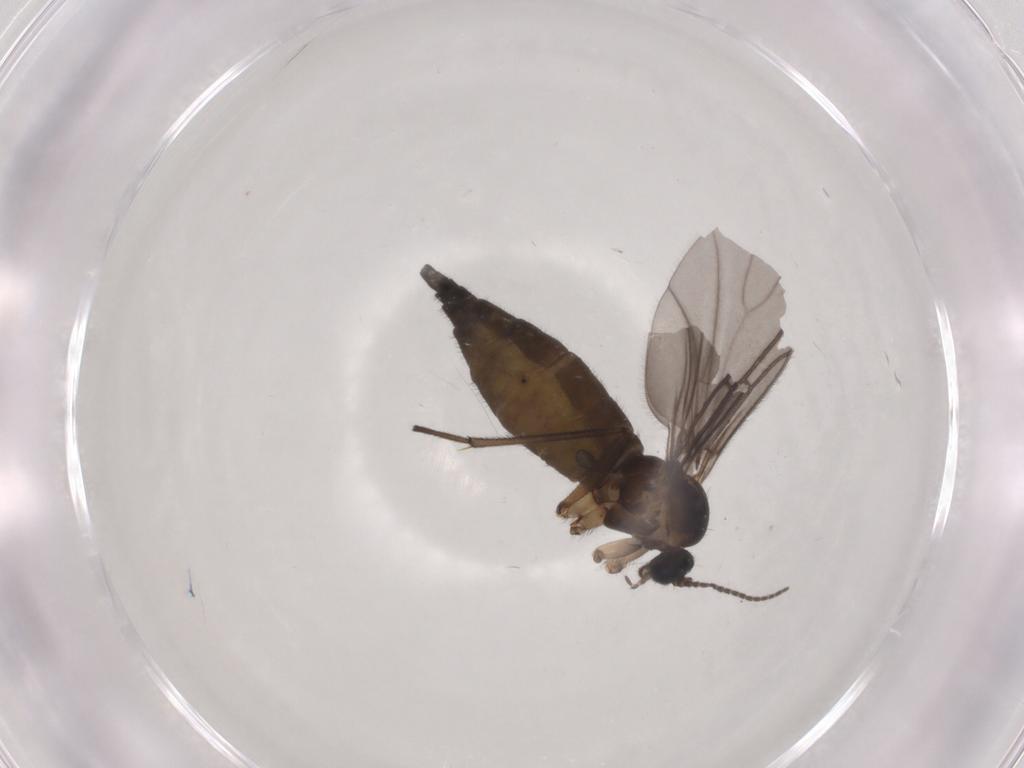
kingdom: Animalia
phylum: Arthropoda
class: Insecta
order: Diptera
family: Sciaridae
